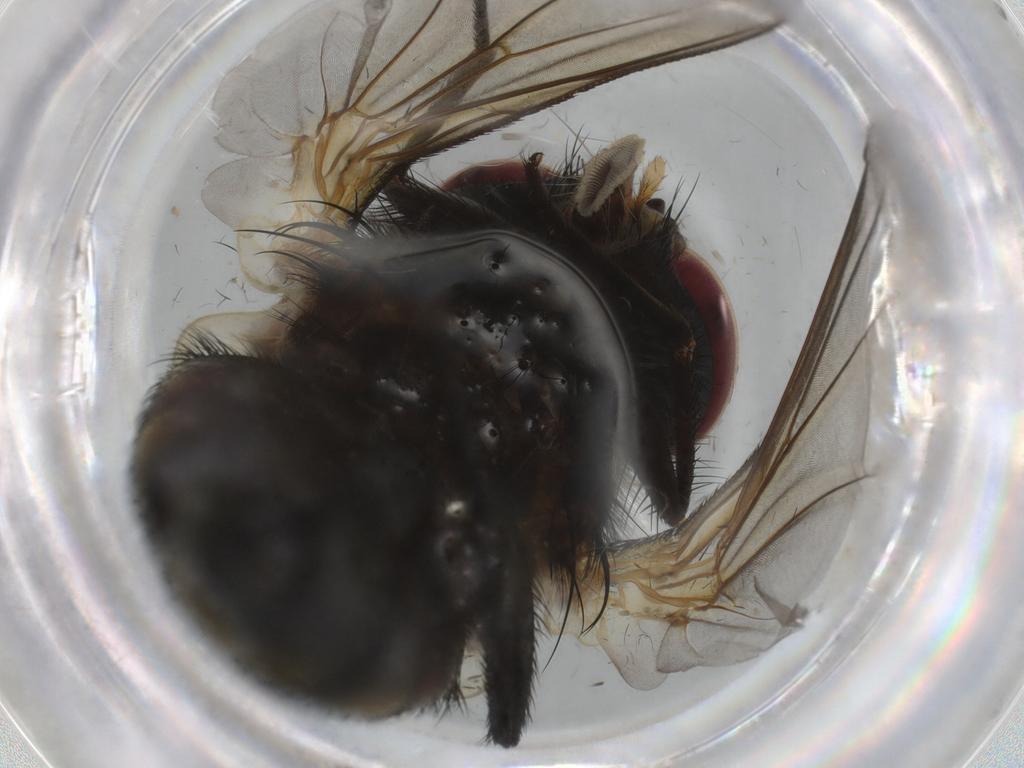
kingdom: Animalia
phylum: Arthropoda
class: Insecta
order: Diptera
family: Tachinidae
